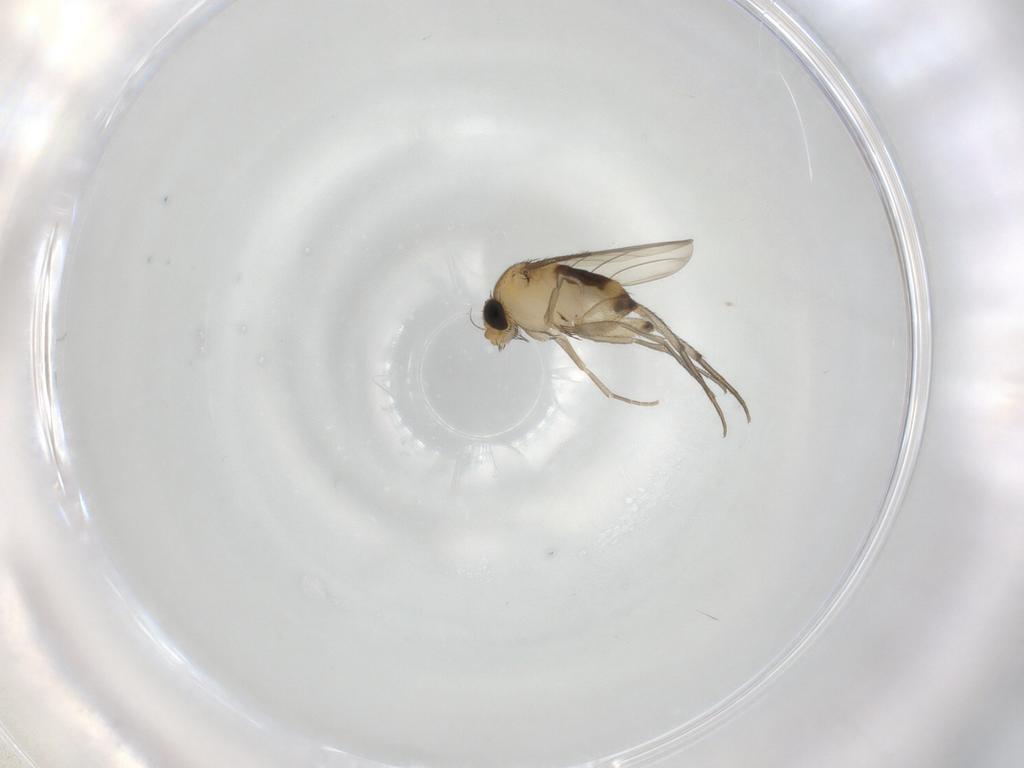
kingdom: Animalia
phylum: Arthropoda
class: Insecta
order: Diptera
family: Phoridae
